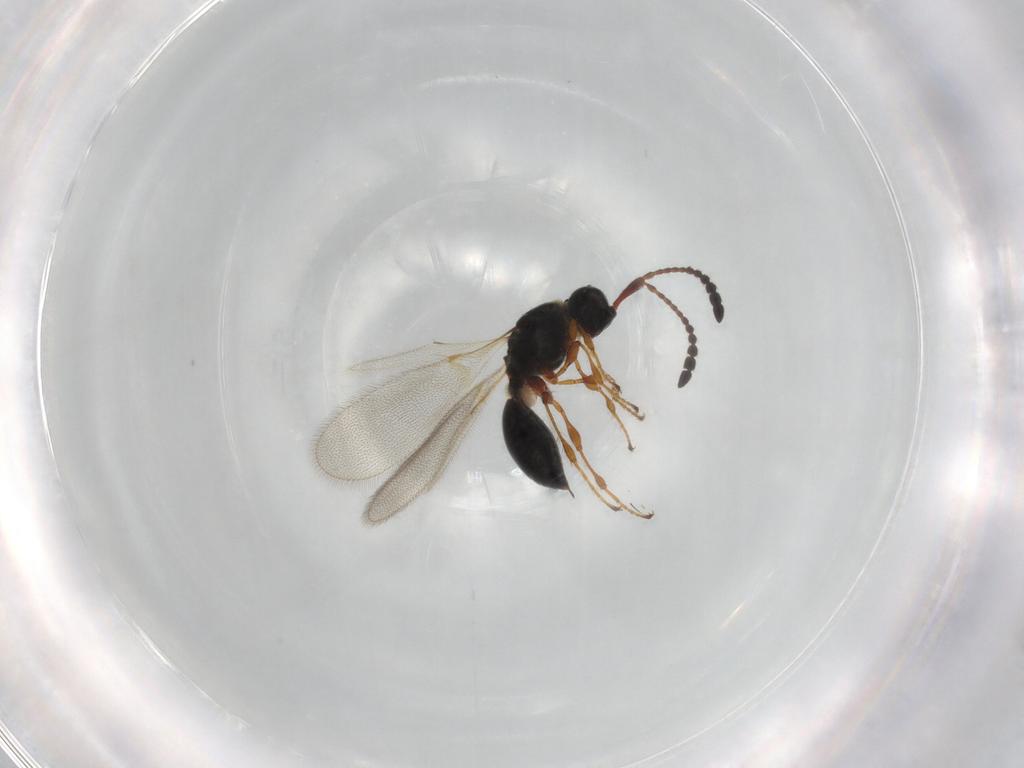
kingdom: Animalia
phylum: Arthropoda
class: Insecta
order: Hymenoptera
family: Diapriidae
